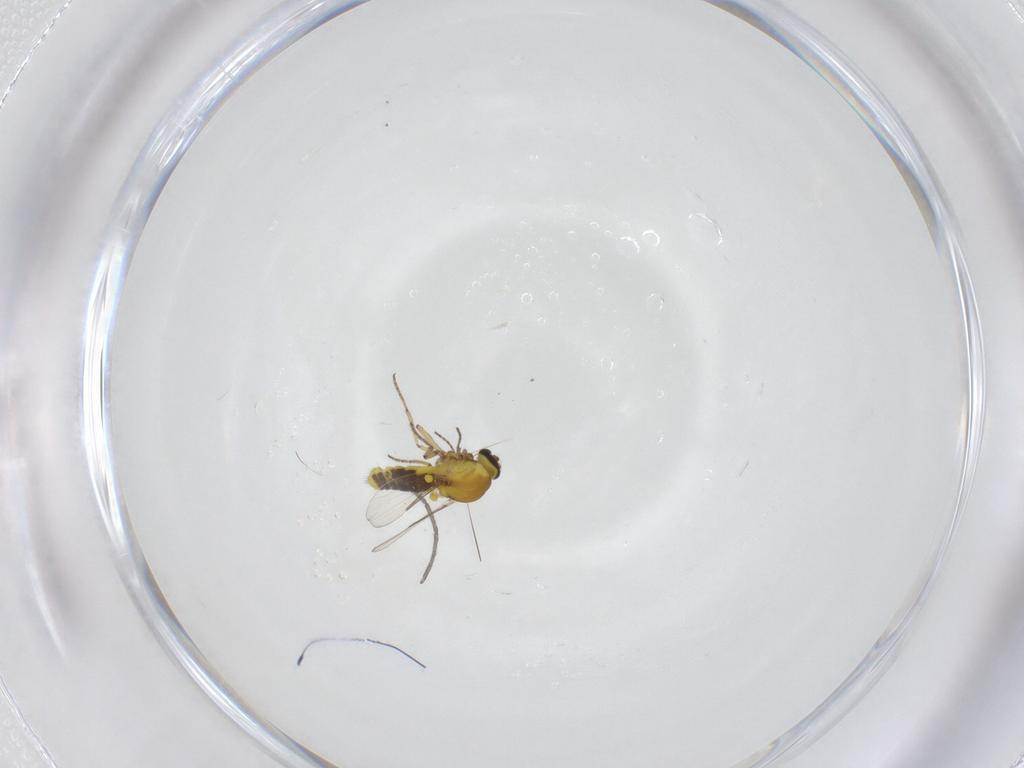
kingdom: Animalia
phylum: Arthropoda
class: Insecta
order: Diptera
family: Chironomidae
